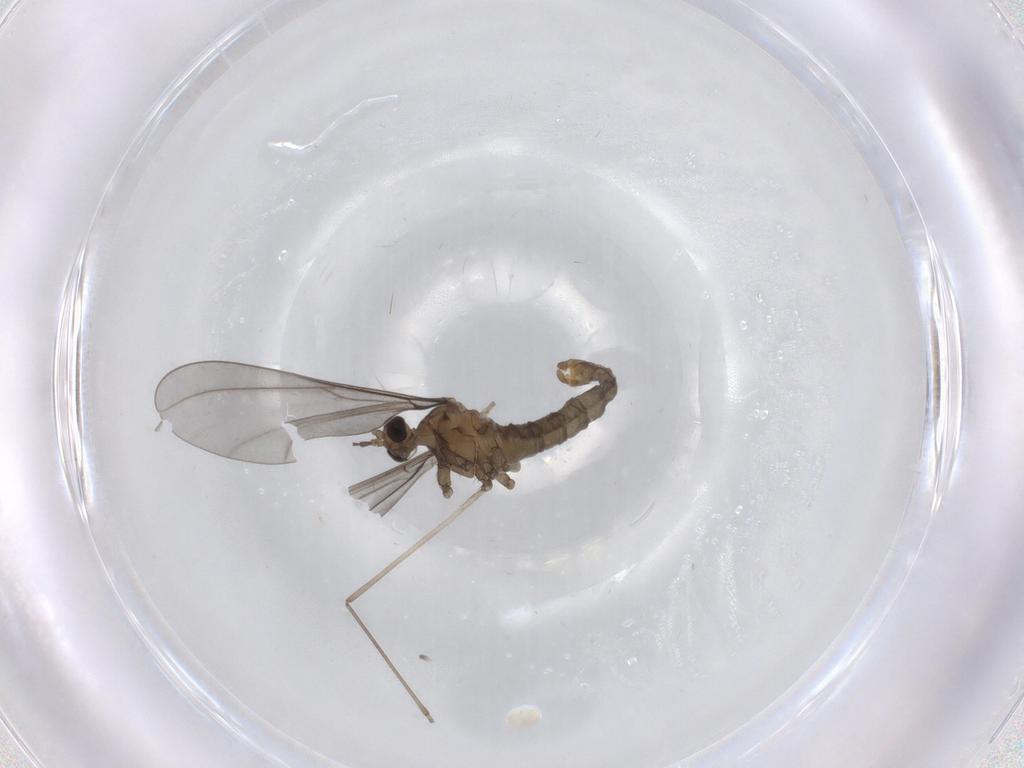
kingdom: Animalia
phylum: Arthropoda
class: Insecta
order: Diptera
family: Cecidomyiidae
